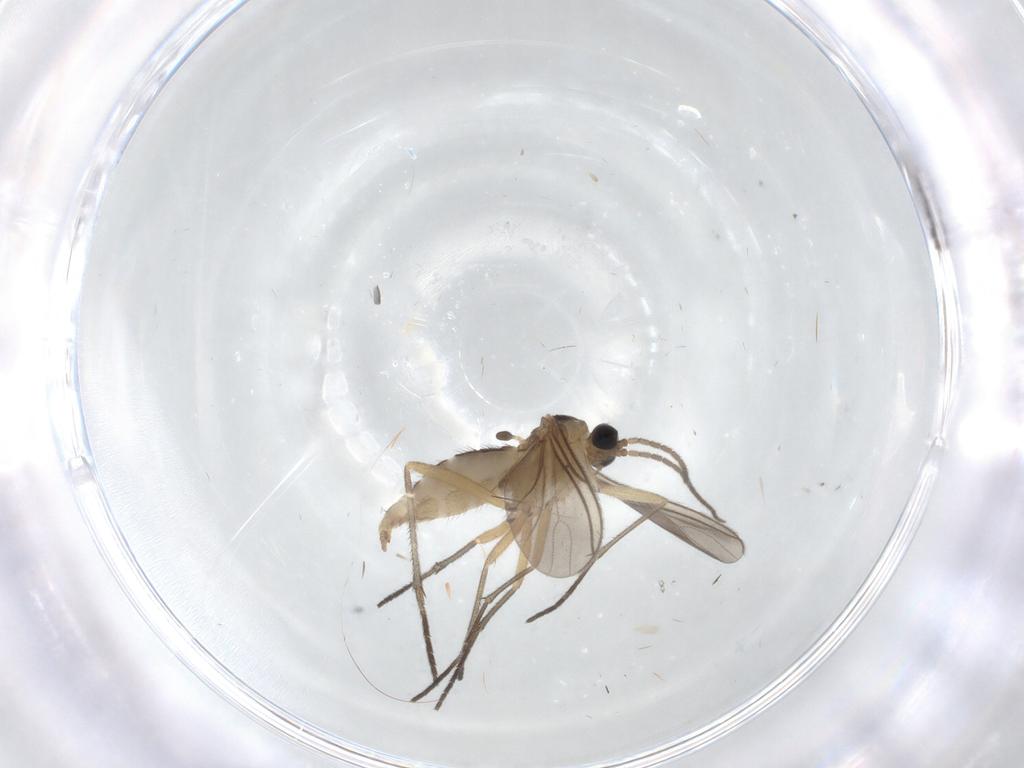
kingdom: Animalia
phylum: Arthropoda
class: Insecta
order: Diptera
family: Sciaridae
